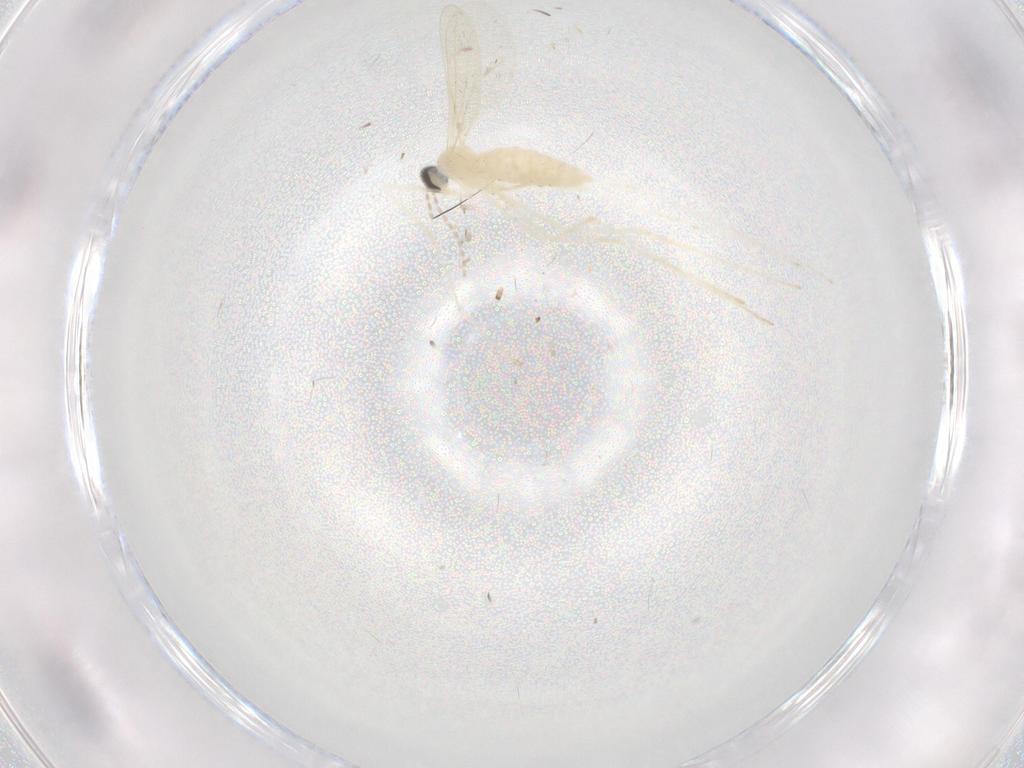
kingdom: Animalia
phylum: Arthropoda
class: Insecta
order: Diptera
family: Cecidomyiidae
